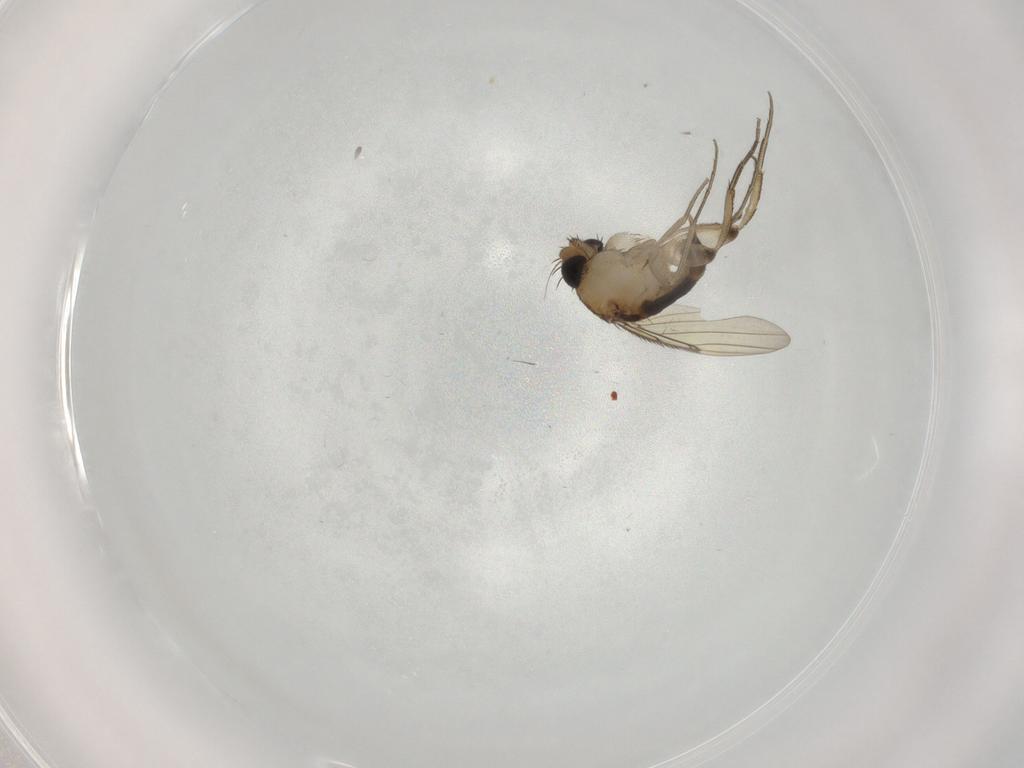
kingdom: Animalia
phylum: Arthropoda
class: Insecta
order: Diptera
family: Phoridae
